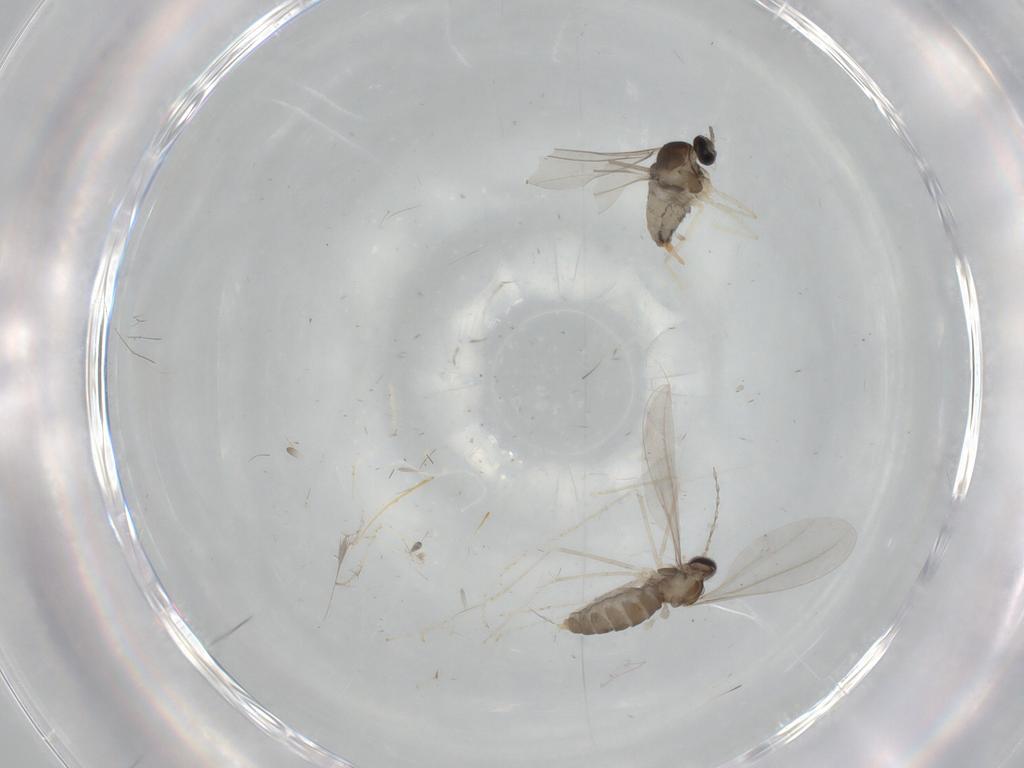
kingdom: Animalia
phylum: Arthropoda
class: Insecta
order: Diptera
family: Cecidomyiidae
